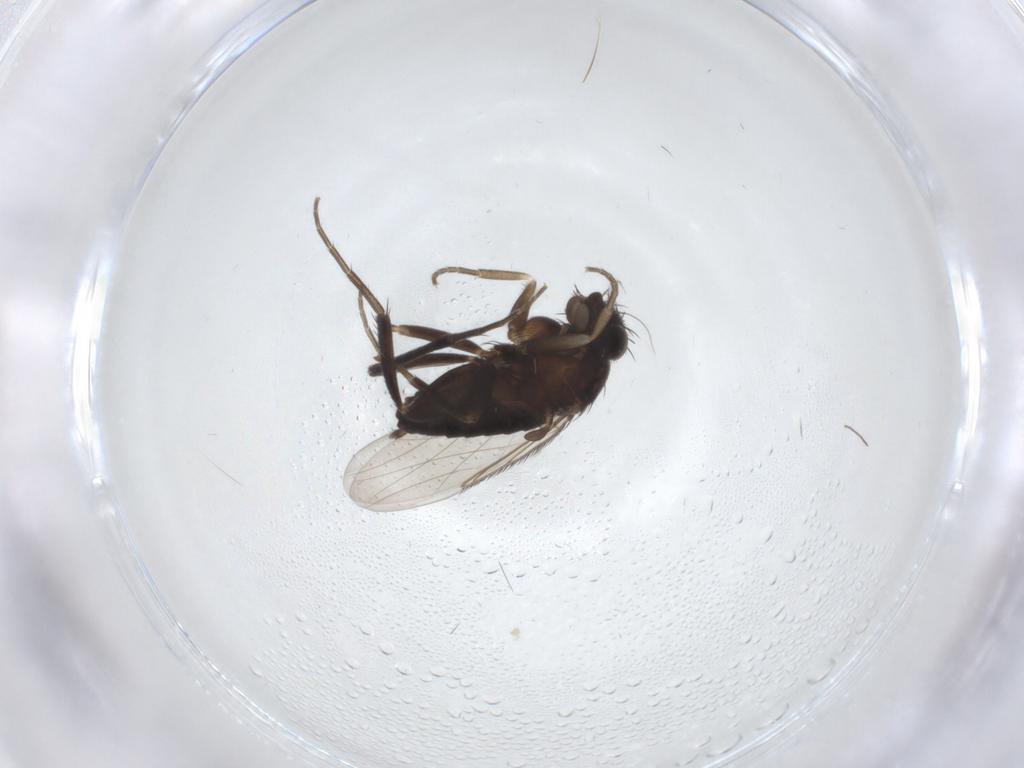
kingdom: Animalia
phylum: Arthropoda
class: Insecta
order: Diptera
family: Phoridae
